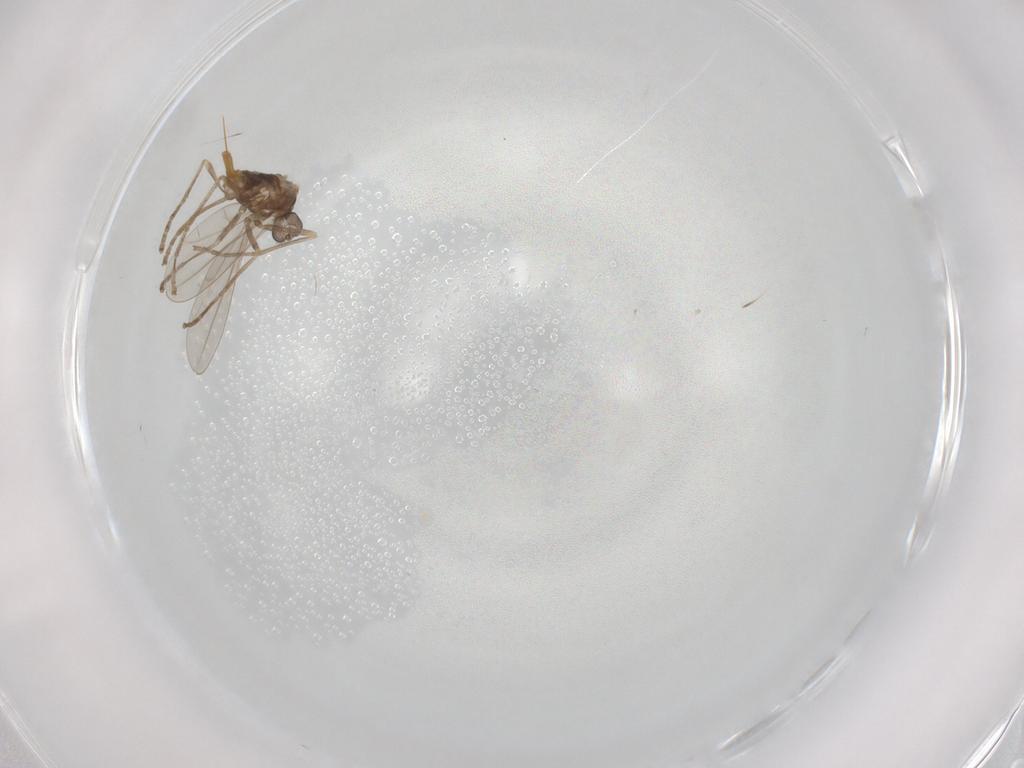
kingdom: Animalia
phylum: Arthropoda
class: Insecta
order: Diptera
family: Cecidomyiidae
